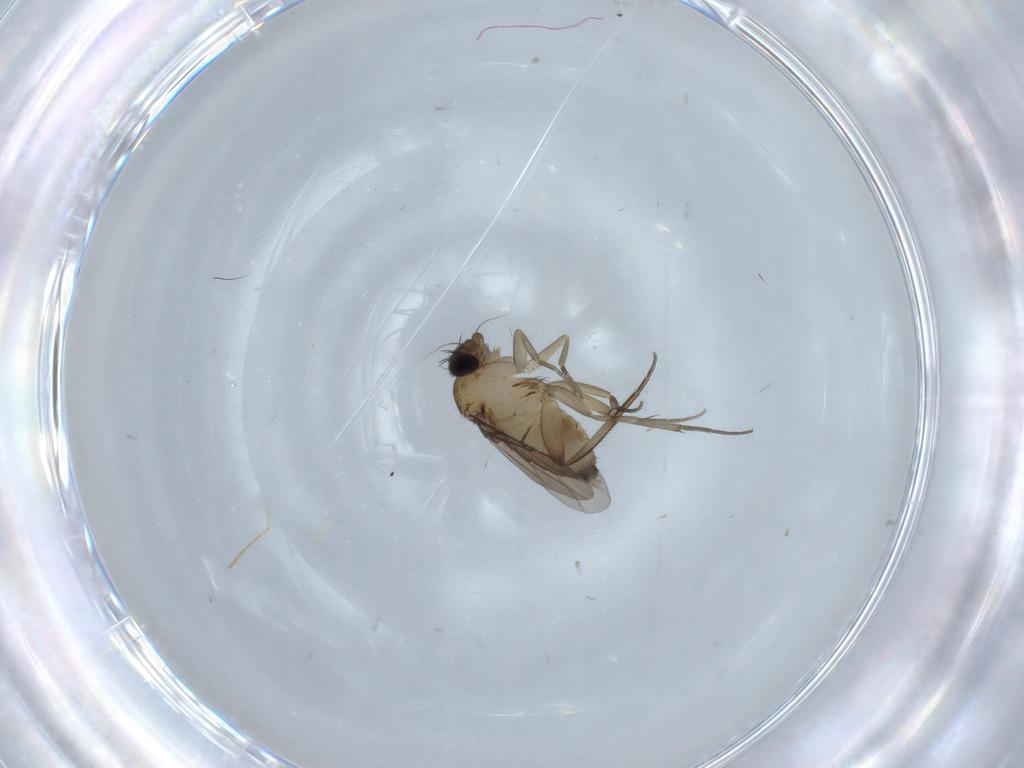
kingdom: Animalia
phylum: Arthropoda
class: Insecta
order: Diptera
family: Phoridae
